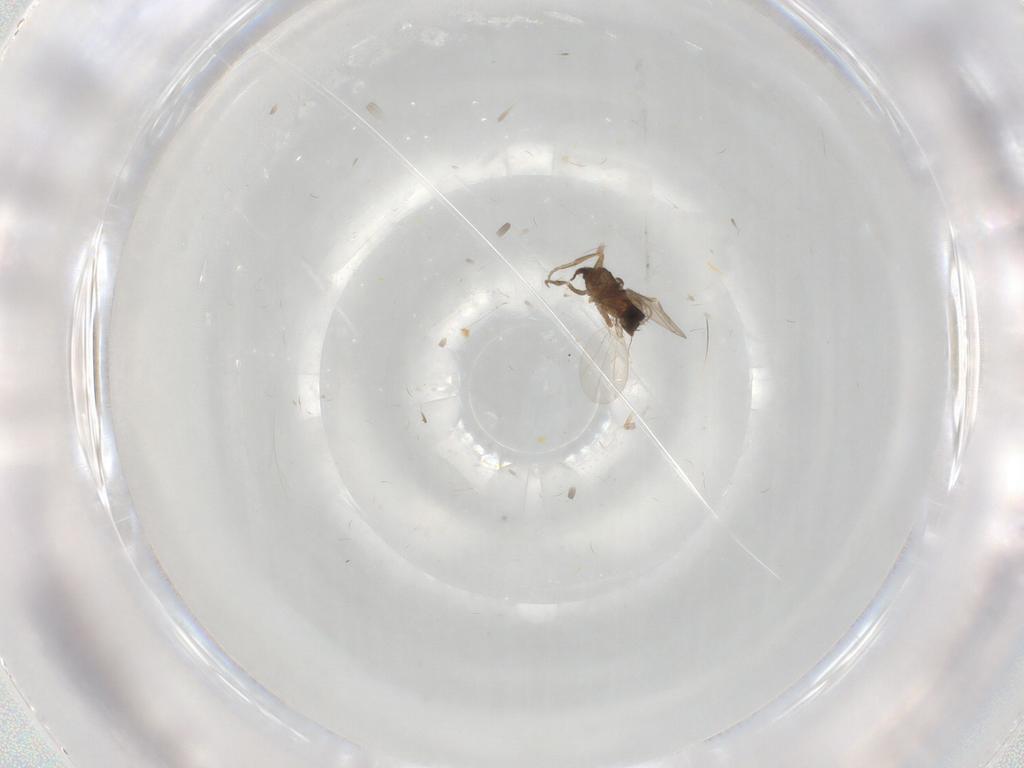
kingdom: Animalia
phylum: Arthropoda
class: Insecta
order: Diptera
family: Phoridae
